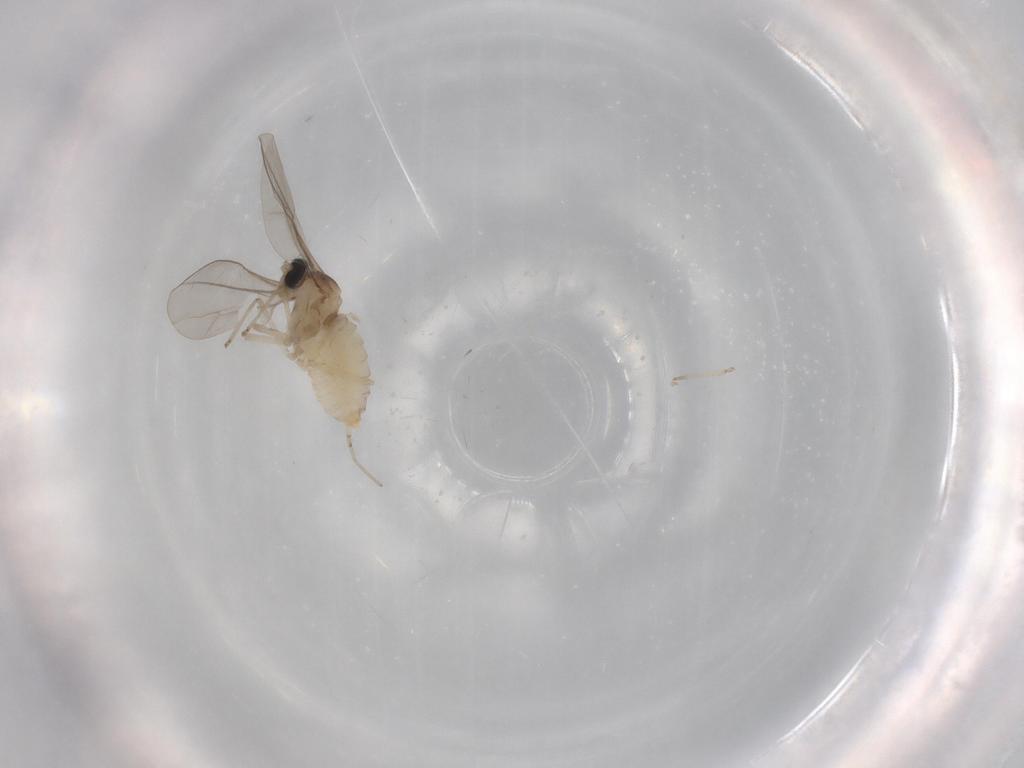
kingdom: Animalia
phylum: Arthropoda
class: Insecta
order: Diptera
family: Cecidomyiidae
